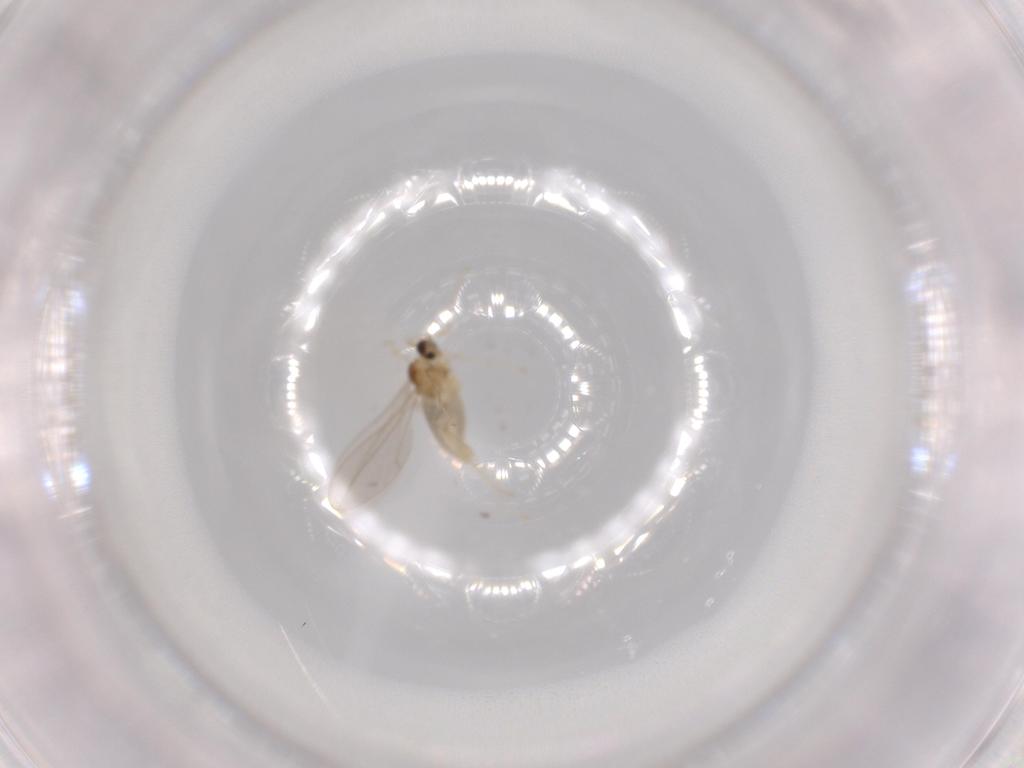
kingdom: Animalia
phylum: Arthropoda
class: Insecta
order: Diptera
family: Cecidomyiidae
